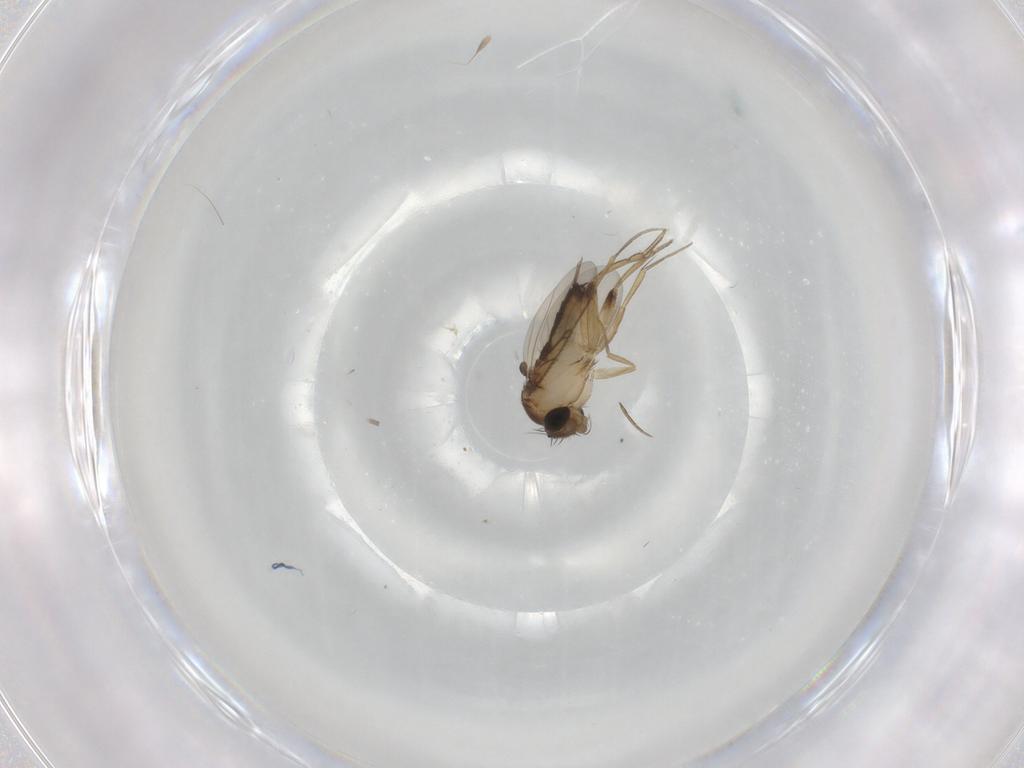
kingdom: Animalia
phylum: Arthropoda
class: Insecta
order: Diptera
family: Phoridae
